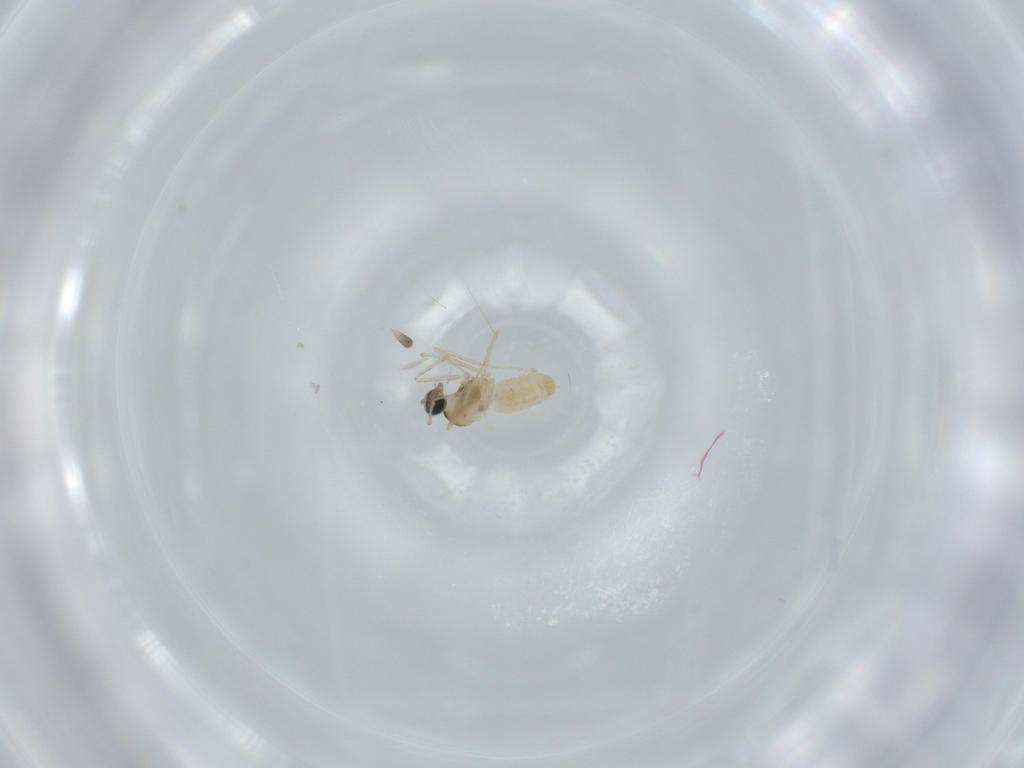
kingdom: Animalia
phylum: Arthropoda
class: Insecta
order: Diptera
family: Cecidomyiidae
